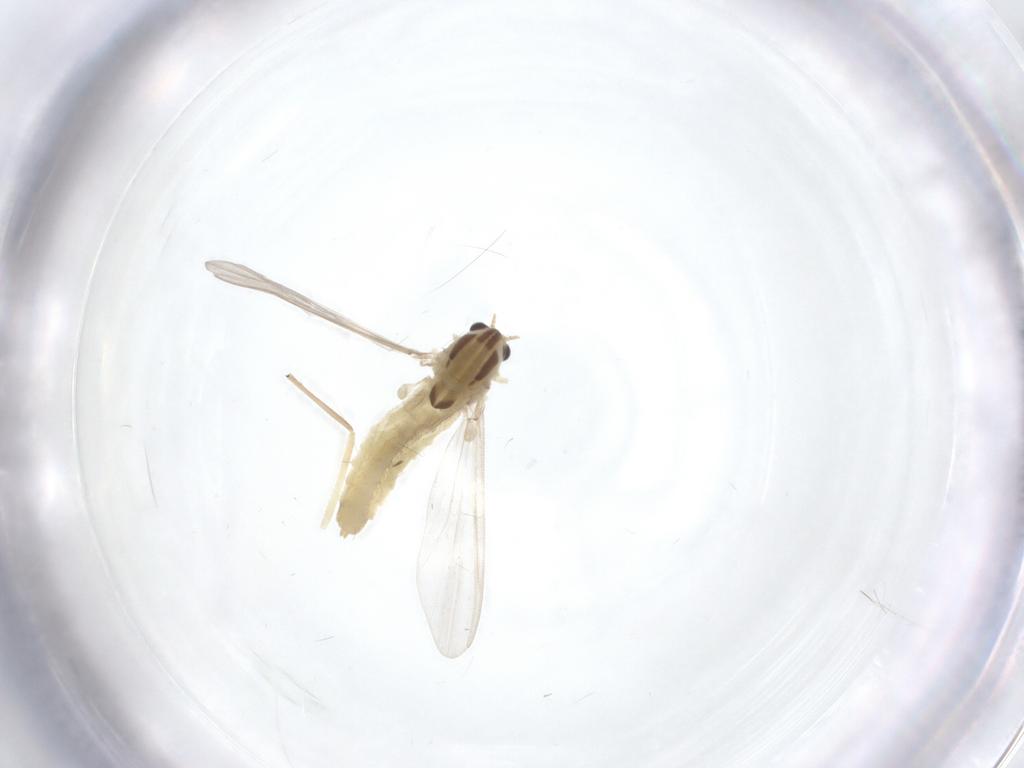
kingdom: Animalia
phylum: Arthropoda
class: Insecta
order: Diptera
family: Chironomidae
